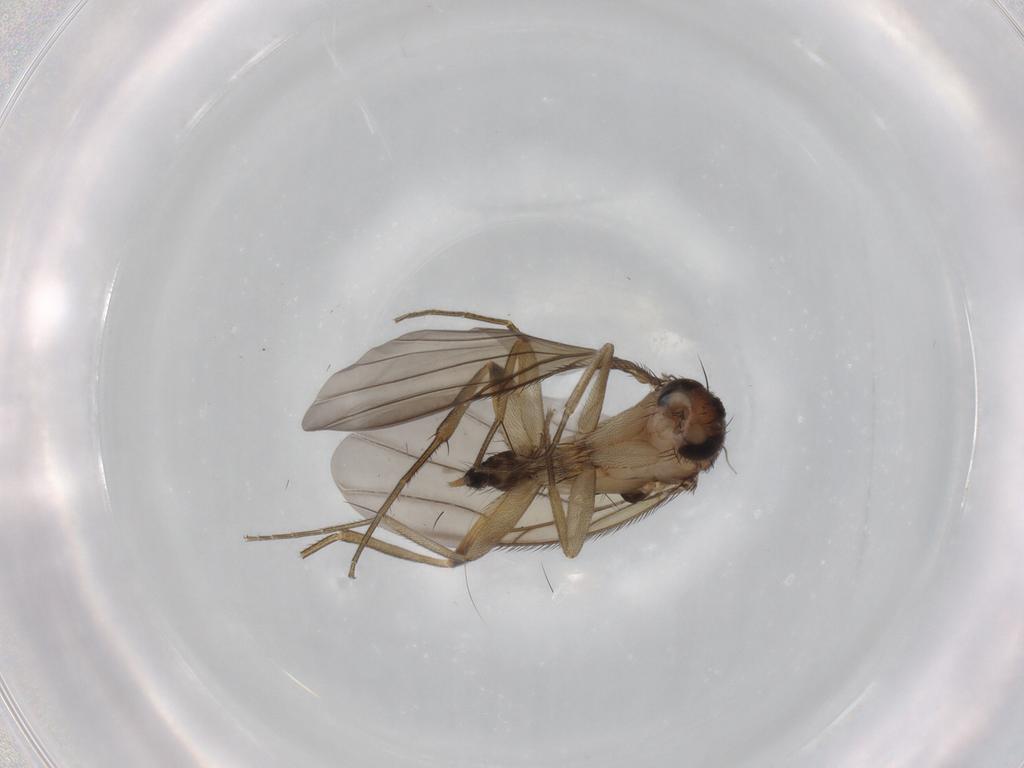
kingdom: Animalia
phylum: Arthropoda
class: Insecta
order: Diptera
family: Phoridae
